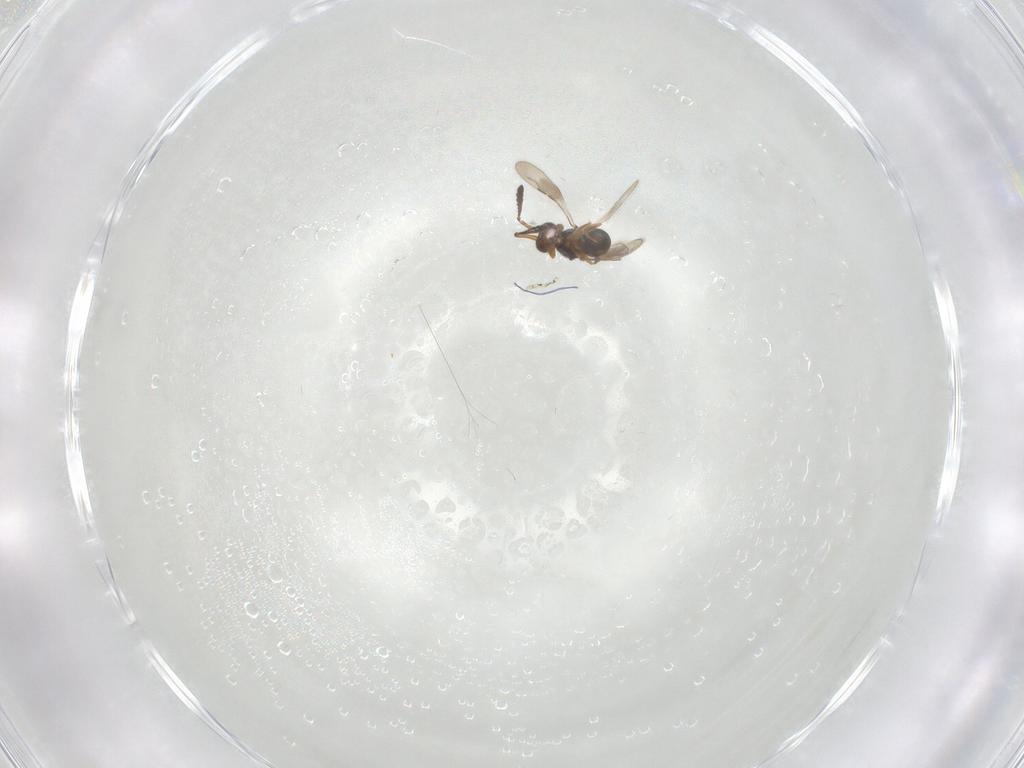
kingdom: Animalia
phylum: Arthropoda
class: Insecta
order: Hymenoptera
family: Ceraphronidae
